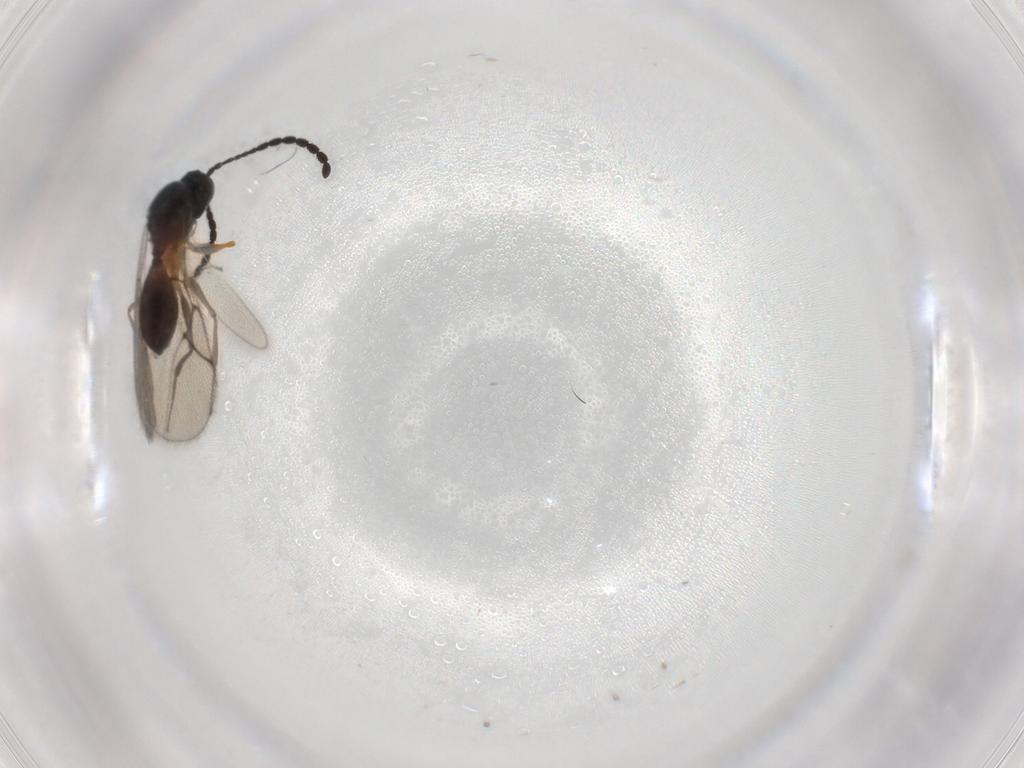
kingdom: Animalia
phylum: Arthropoda
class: Insecta
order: Hymenoptera
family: Figitidae
